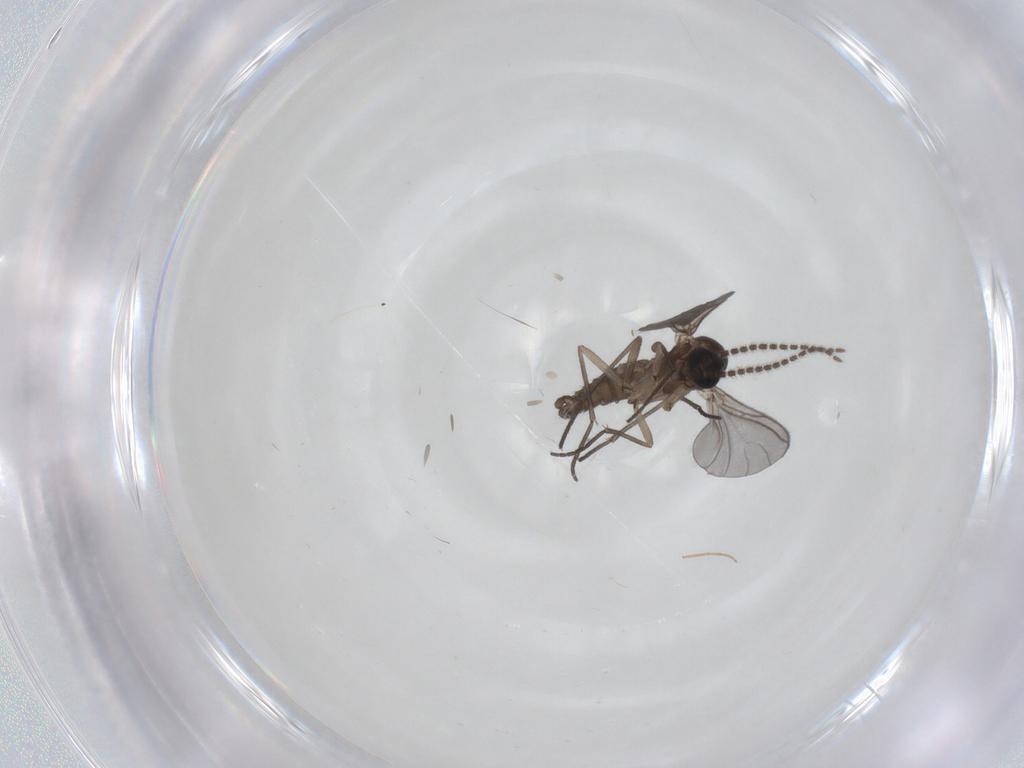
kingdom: Animalia
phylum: Arthropoda
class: Insecta
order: Diptera
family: Sciaridae
